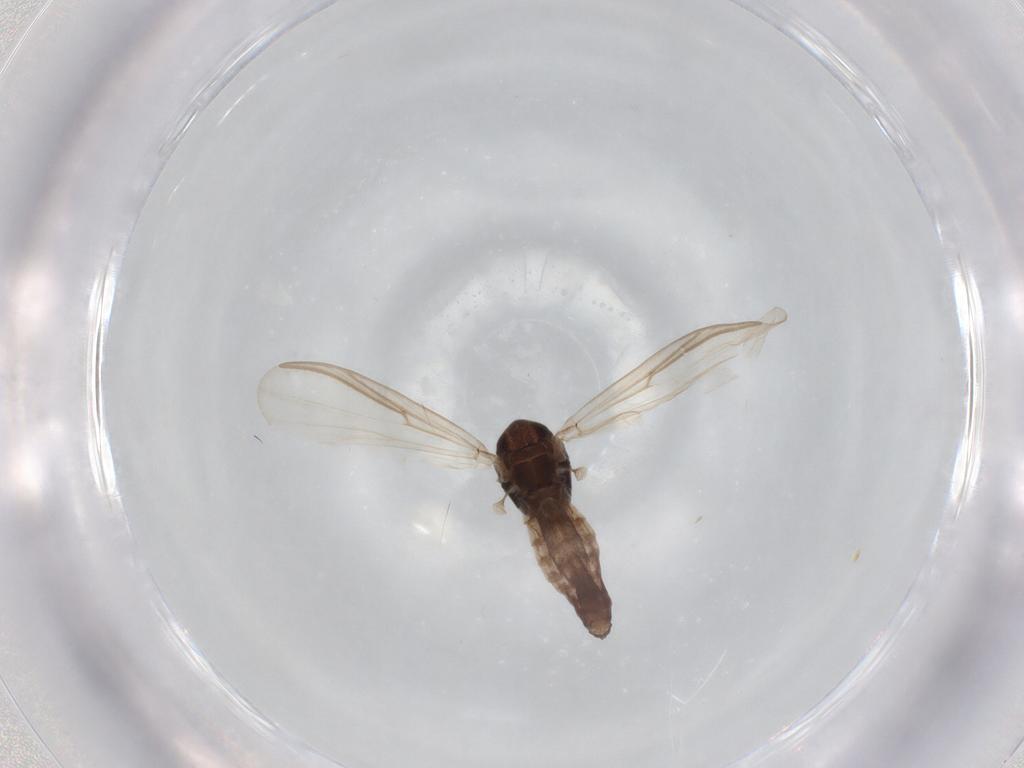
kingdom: Animalia
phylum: Arthropoda
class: Insecta
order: Diptera
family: Chironomidae
